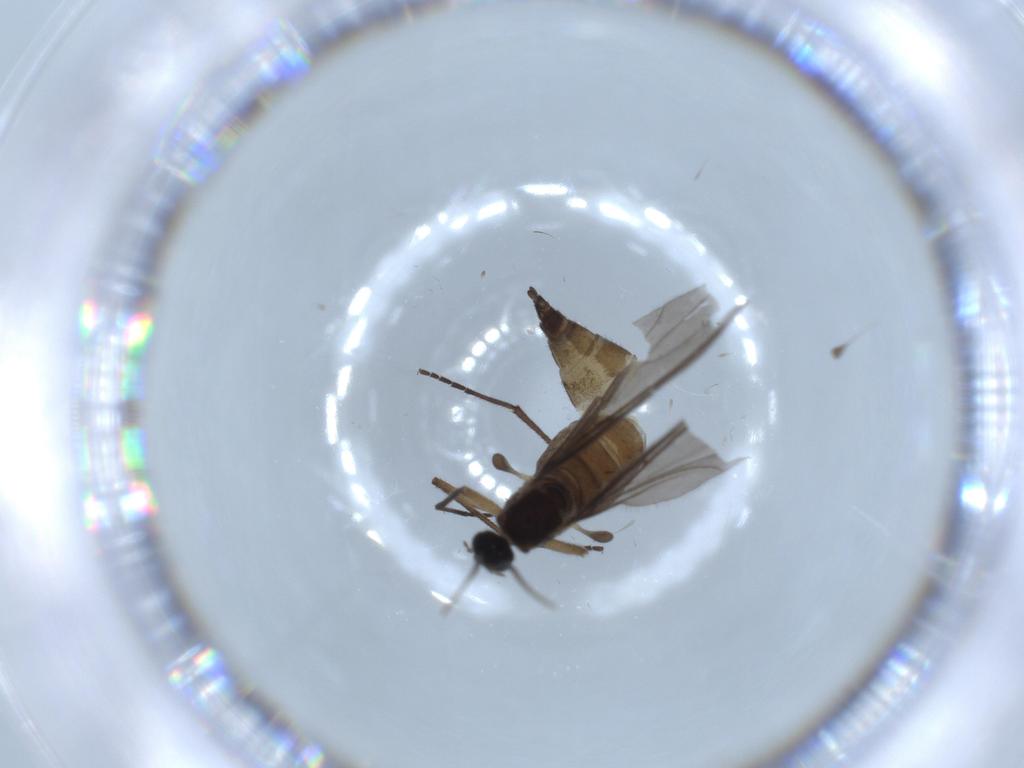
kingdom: Animalia
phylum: Arthropoda
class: Insecta
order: Diptera
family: Sciaridae
